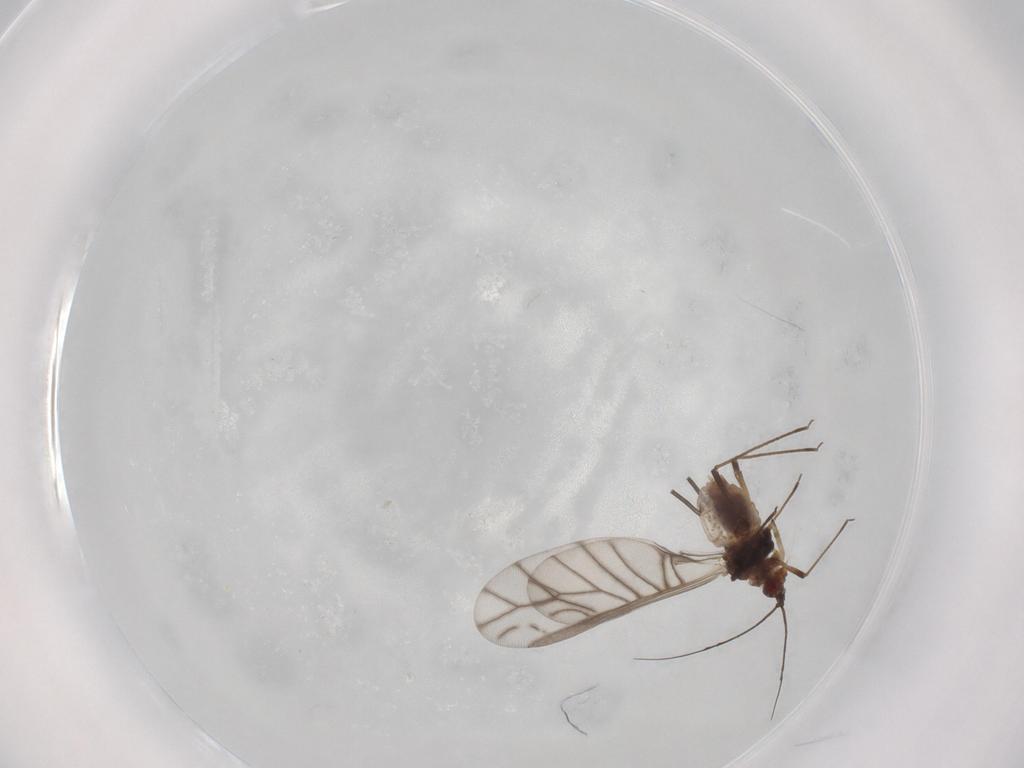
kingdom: Animalia
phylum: Arthropoda
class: Insecta
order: Hemiptera
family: Aphididae
